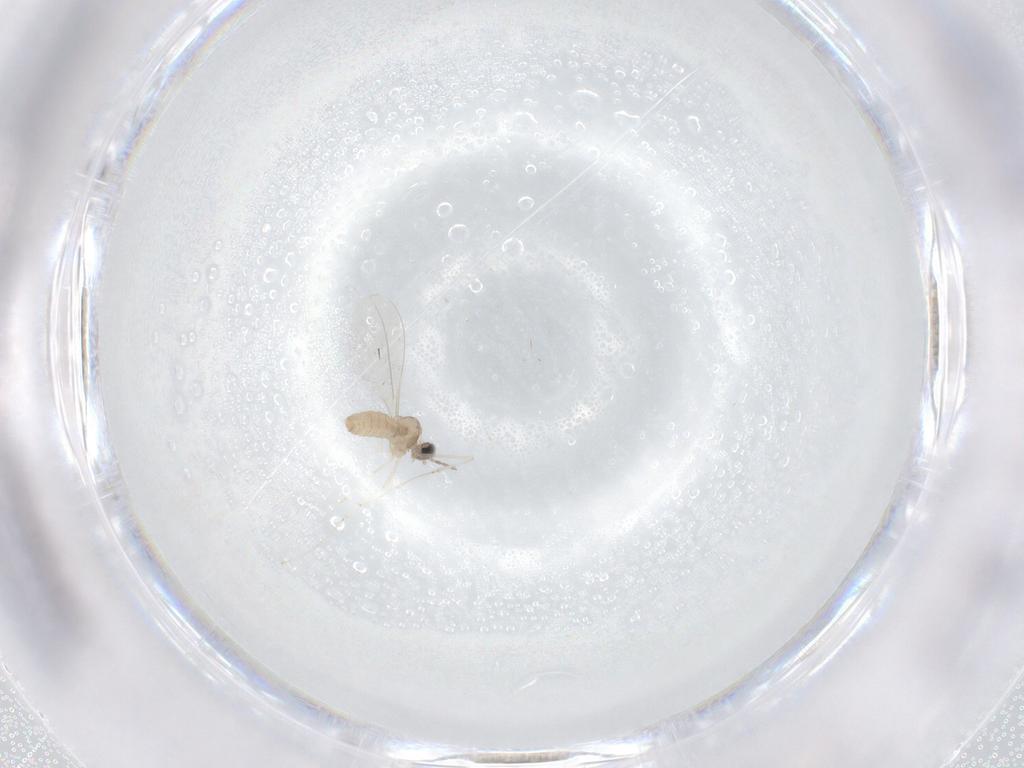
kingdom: Animalia
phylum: Arthropoda
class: Insecta
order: Diptera
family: Cecidomyiidae
